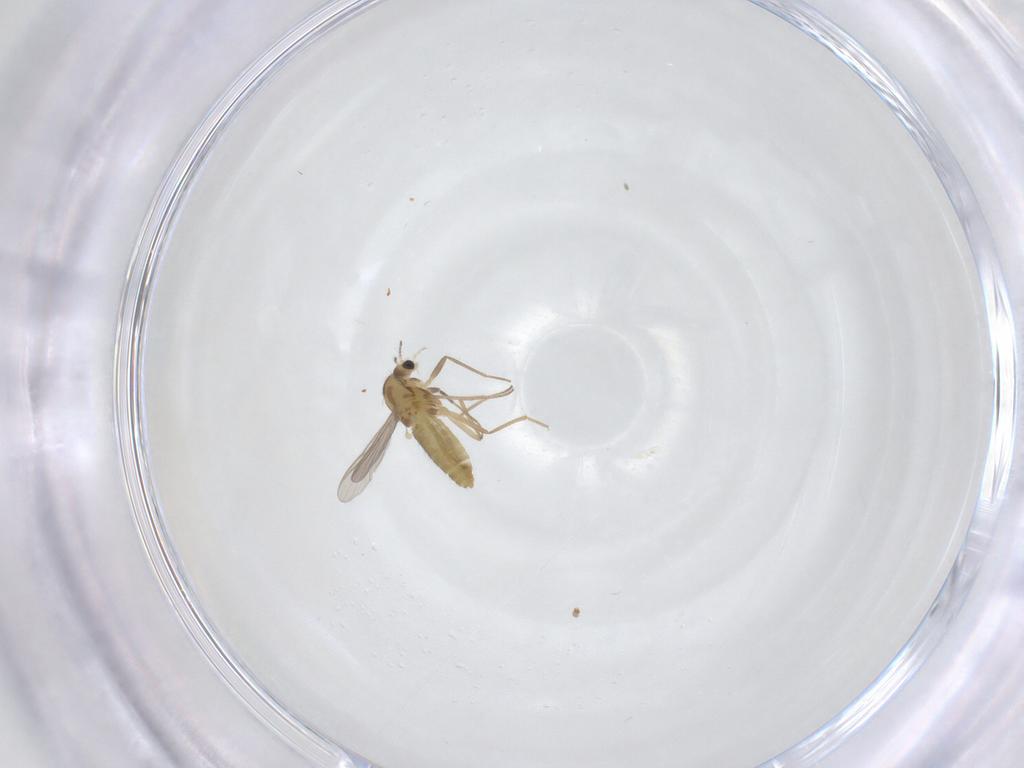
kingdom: Animalia
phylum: Arthropoda
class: Insecta
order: Diptera
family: Chironomidae
